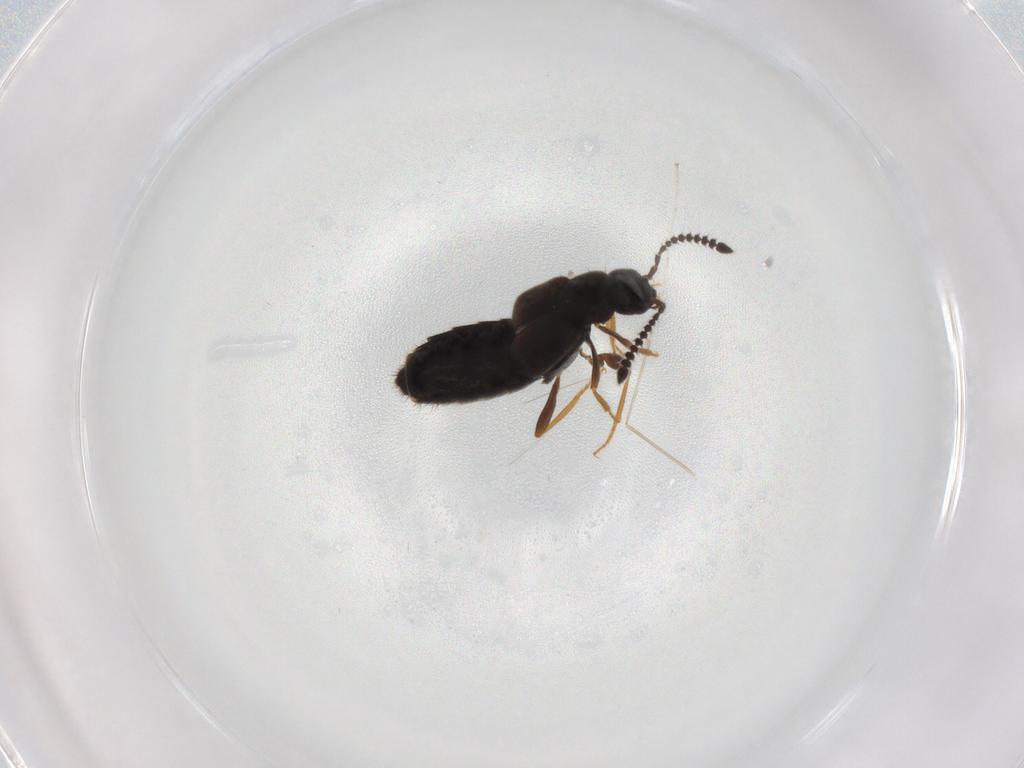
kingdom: Animalia
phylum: Arthropoda
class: Insecta
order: Coleoptera
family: Staphylinidae
